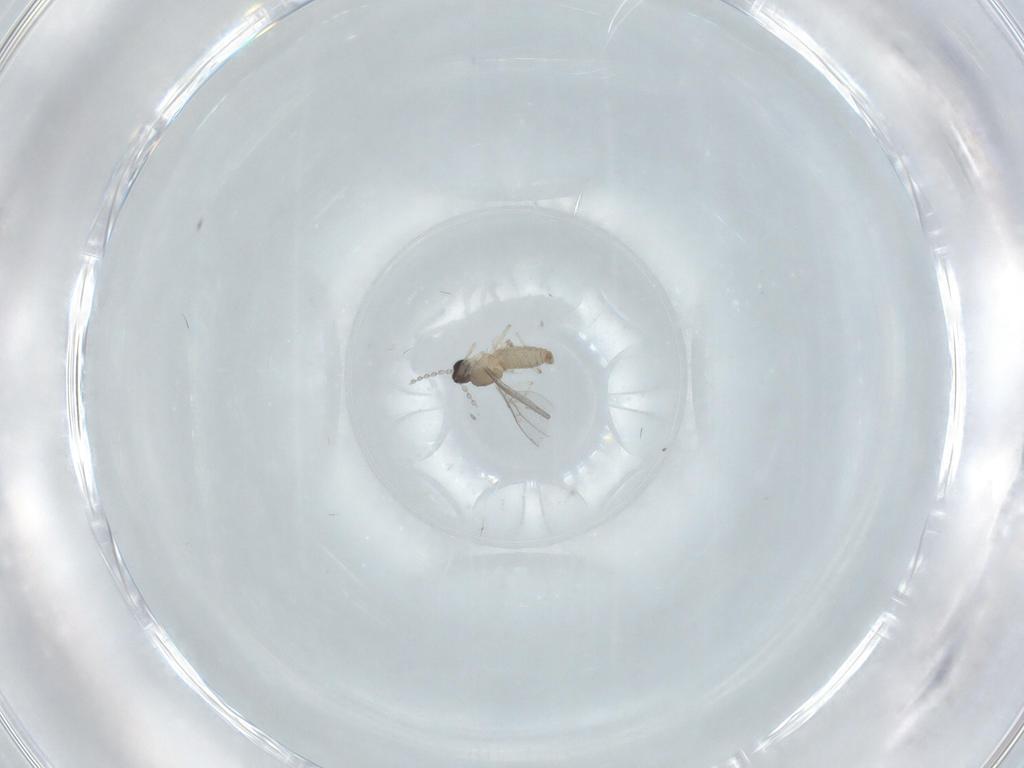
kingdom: Animalia
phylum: Arthropoda
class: Insecta
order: Diptera
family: Cecidomyiidae
